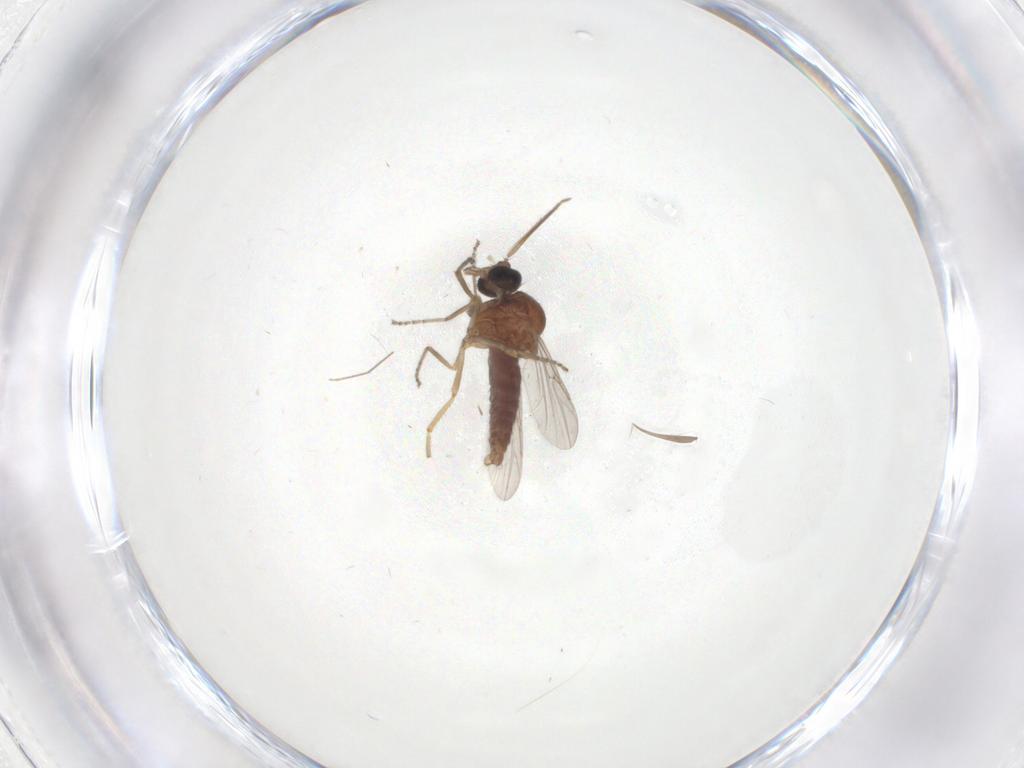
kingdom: Animalia
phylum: Arthropoda
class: Insecta
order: Diptera
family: Ceratopogonidae
